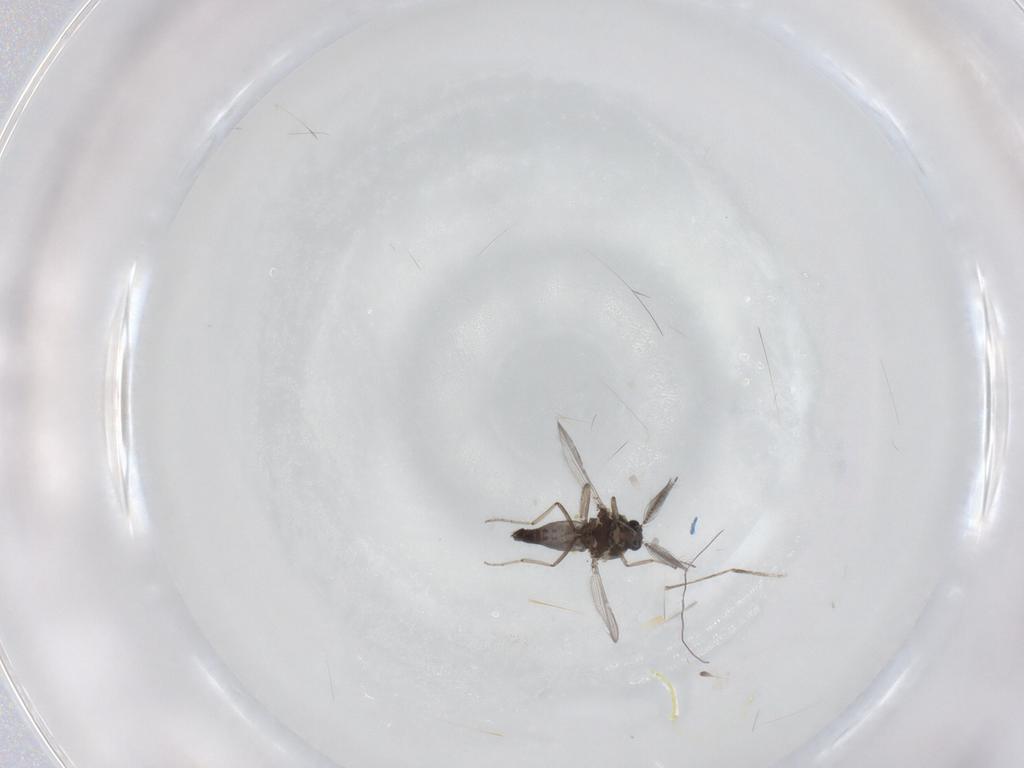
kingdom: Animalia
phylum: Arthropoda
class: Insecta
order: Diptera
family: Ceratopogonidae
